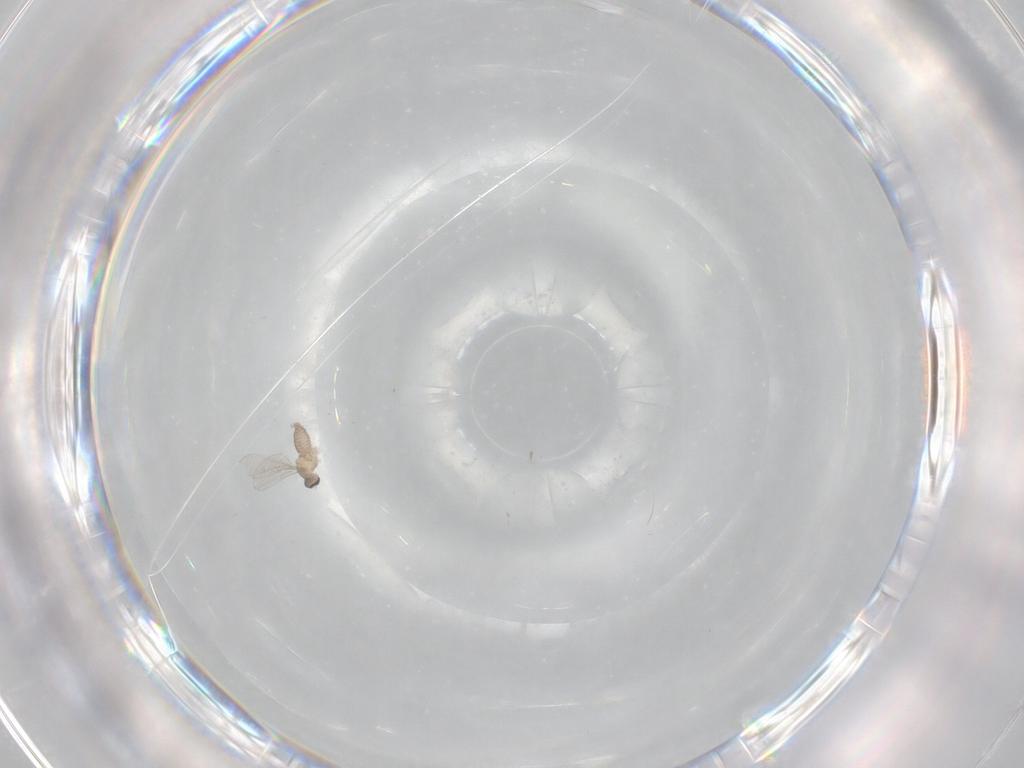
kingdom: Animalia
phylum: Arthropoda
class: Insecta
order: Diptera
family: Cecidomyiidae
